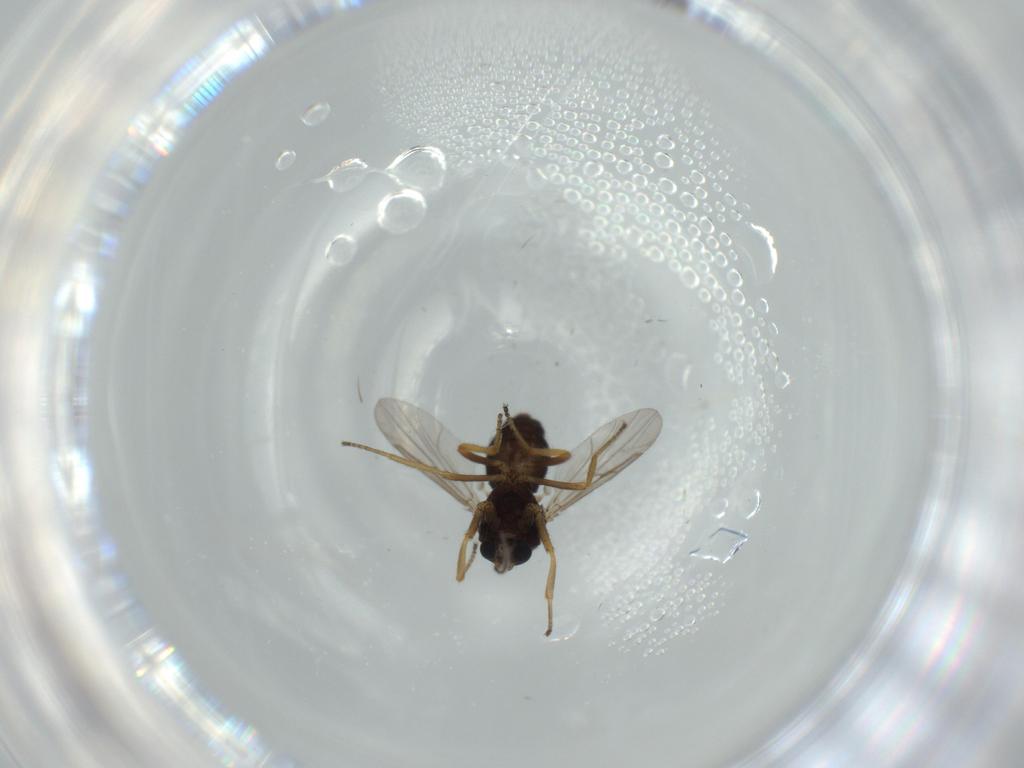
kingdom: Animalia
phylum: Arthropoda
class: Insecta
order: Diptera
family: Ceratopogonidae
